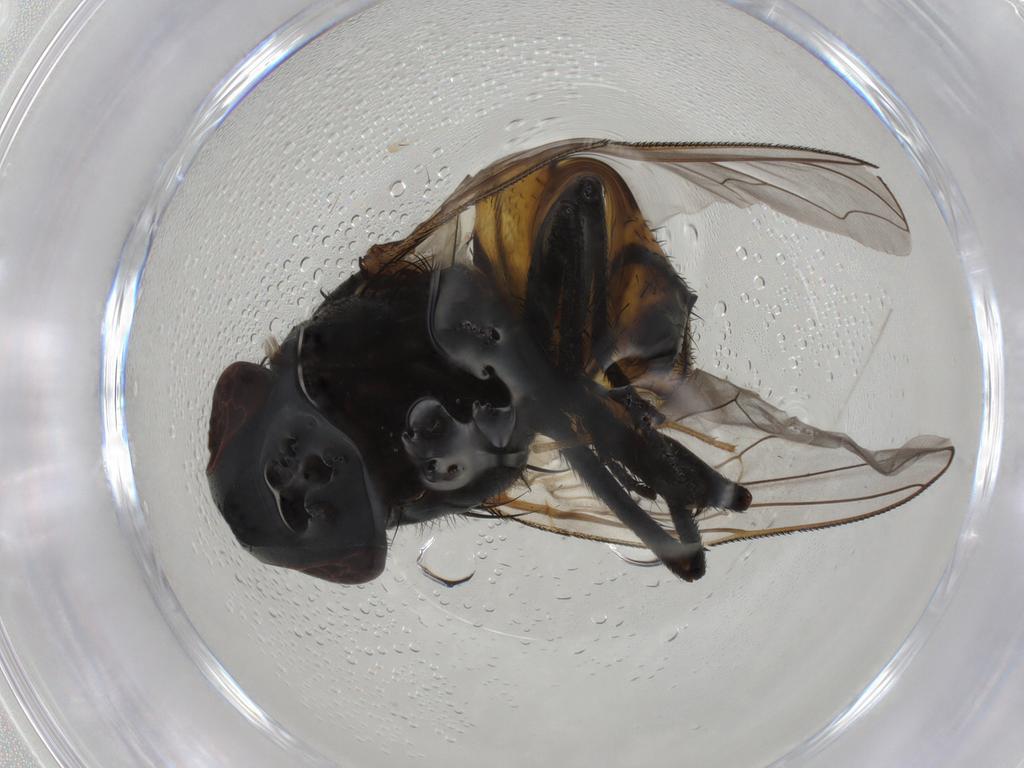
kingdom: Animalia
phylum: Arthropoda
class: Insecta
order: Diptera
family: Muscidae
